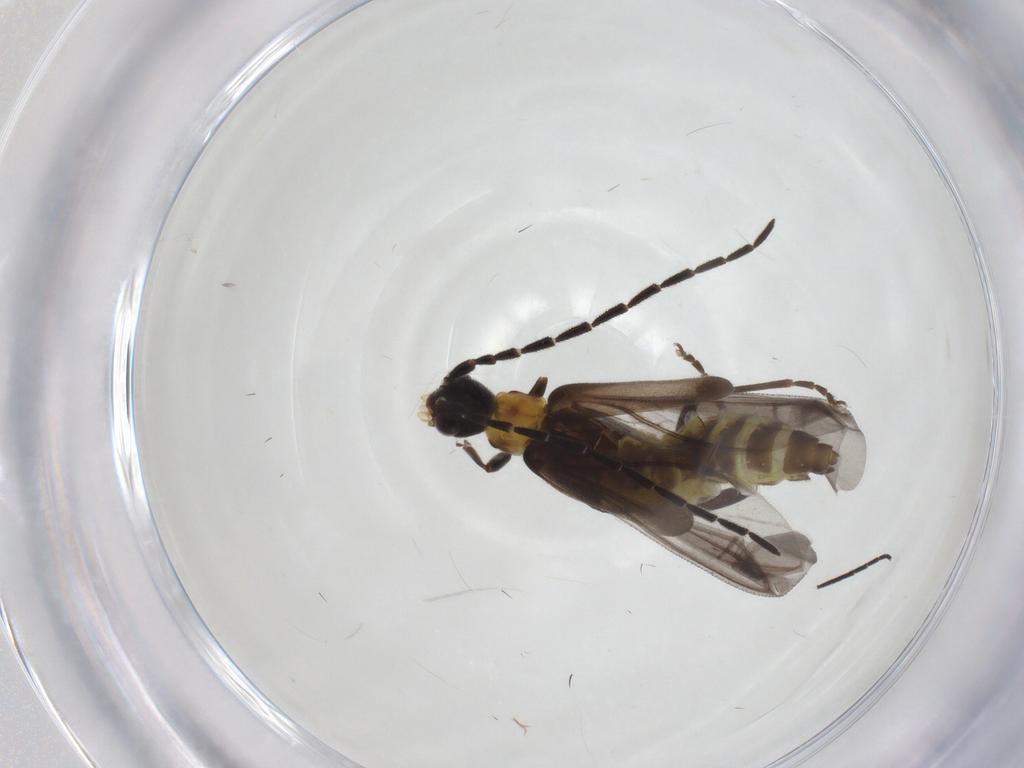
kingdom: Animalia
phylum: Arthropoda
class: Insecta
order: Coleoptera
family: Cantharidae
